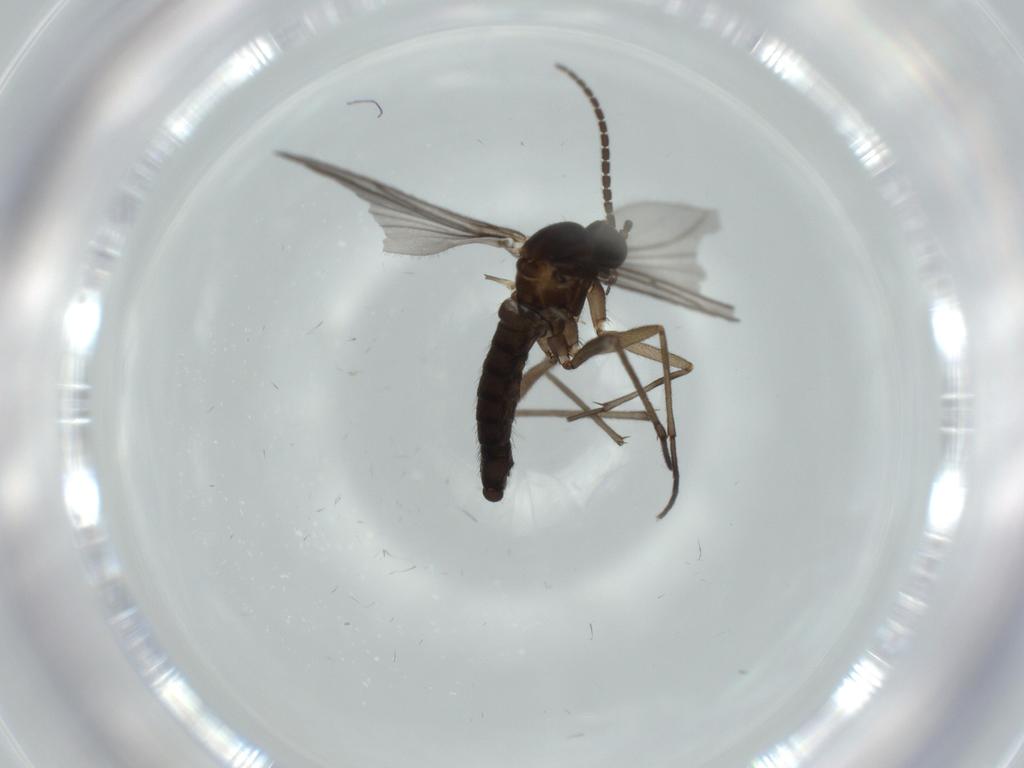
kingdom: Animalia
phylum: Arthropoda
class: Insecta
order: Diptera
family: Sciaridae
